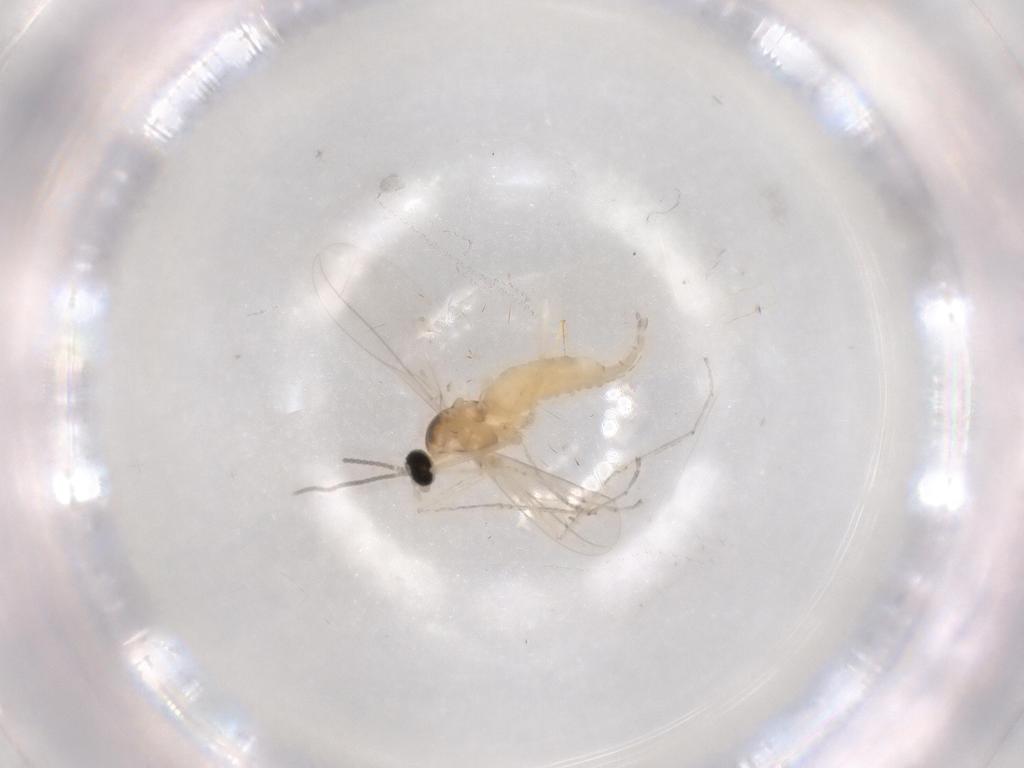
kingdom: Animalia
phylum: Arthropoda
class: Insecta
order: Diptera
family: Cecidomyiidae
